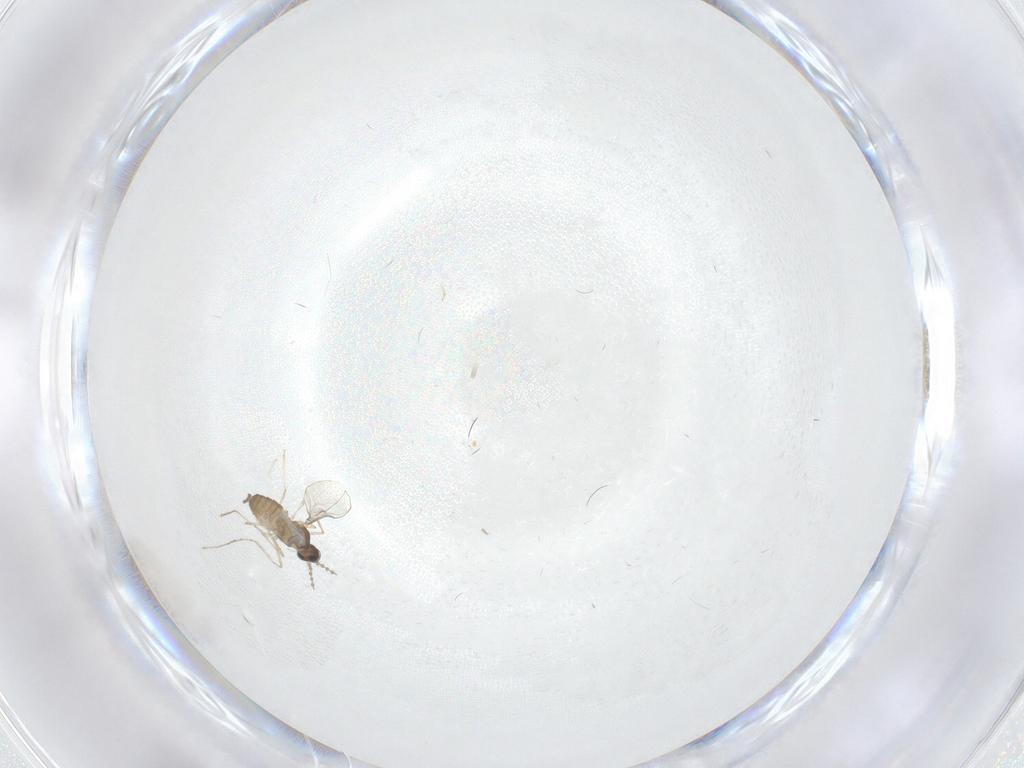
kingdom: Animalia
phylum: Arthropoda
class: Insecta
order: Diptera
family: Cecidomyiidae
